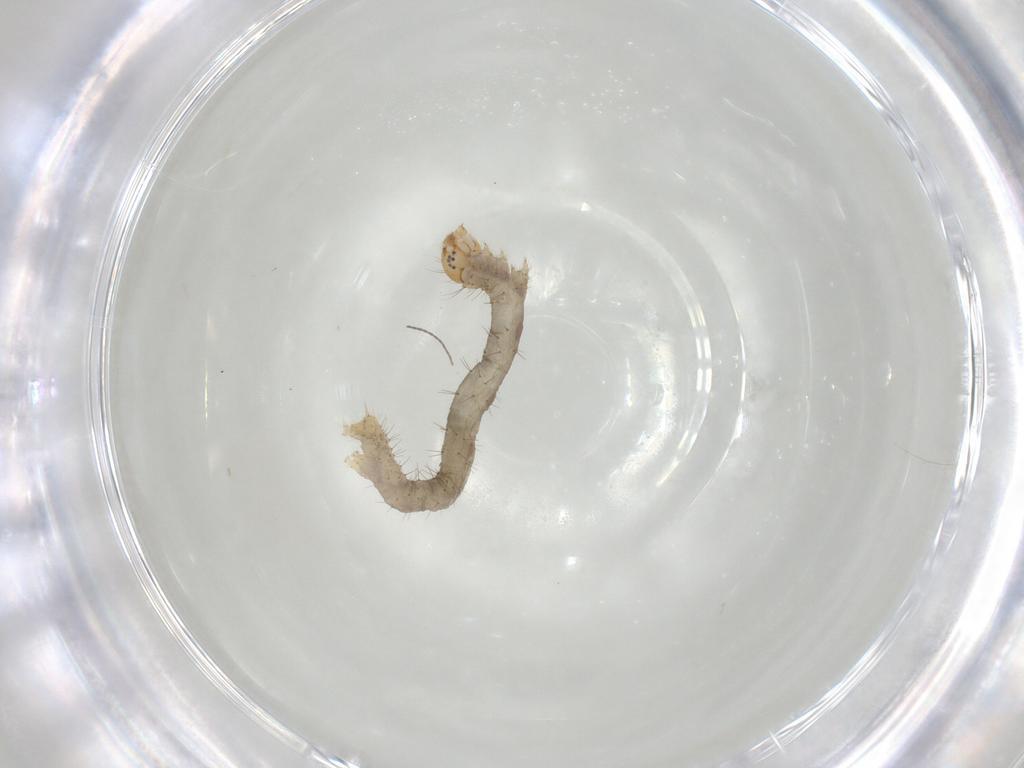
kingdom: Animalia
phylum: Arthropoda
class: Insecta
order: Lepidoptera
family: Geometridae
